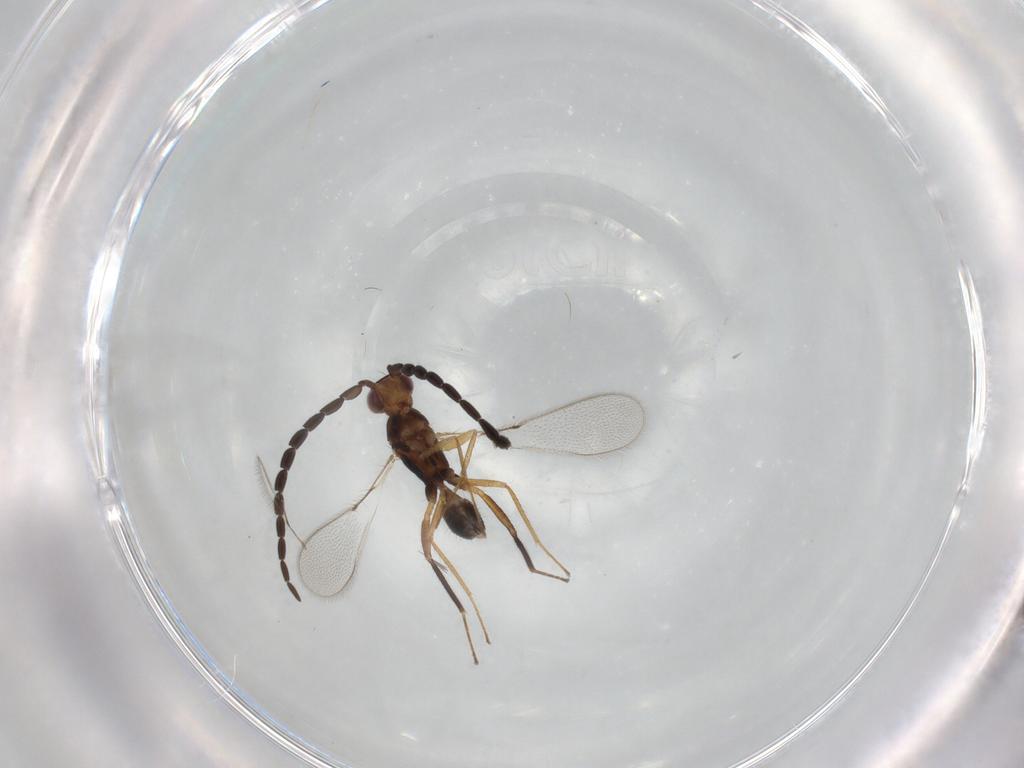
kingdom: Animalia
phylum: Arthropoda
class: Insecta
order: Hymenoptera
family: Mymaridae
